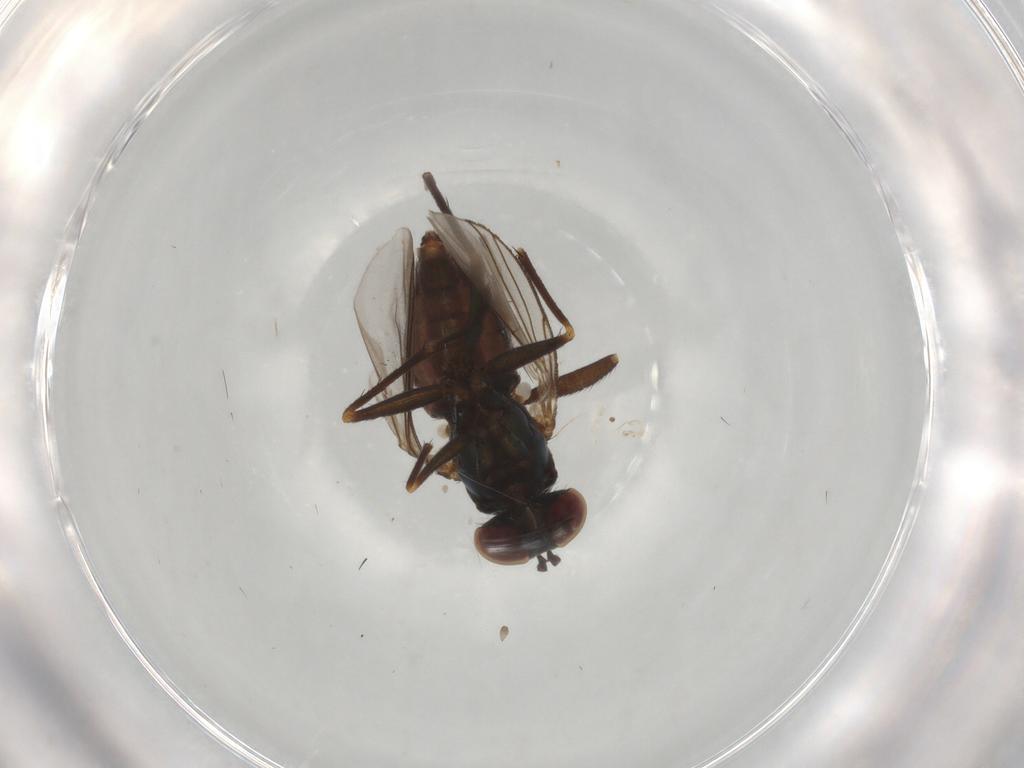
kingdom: Animalia
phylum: Arthropoda
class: Insecta
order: Diptera
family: Dolichopodidae
